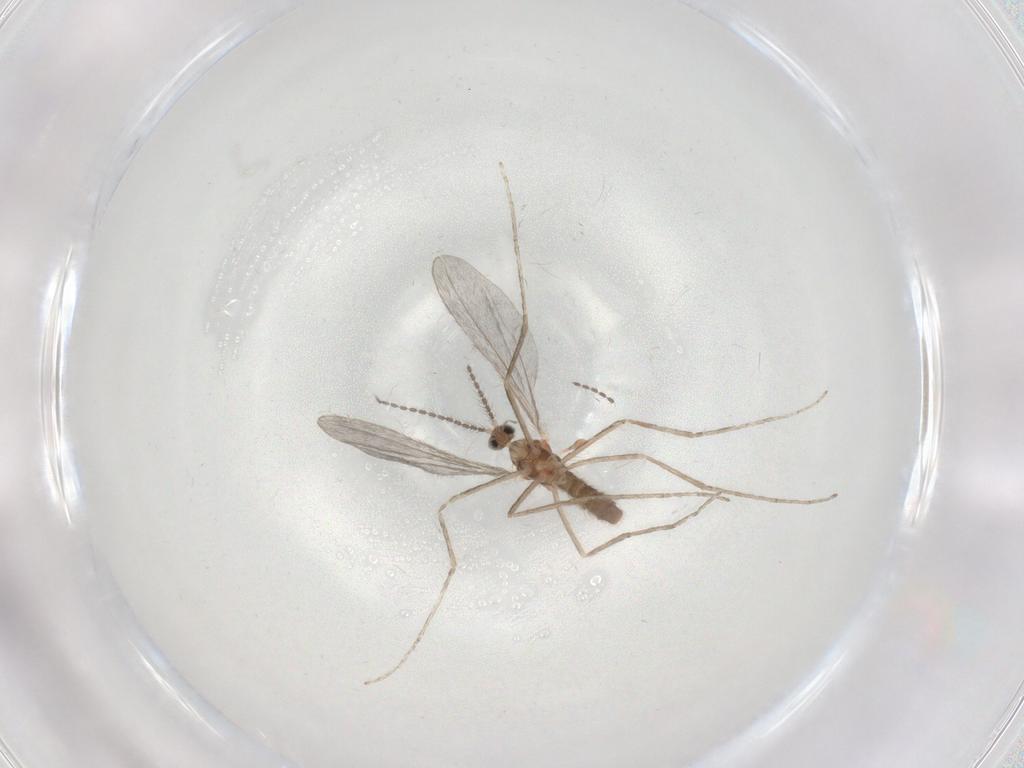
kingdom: Animalia
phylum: Arthropoda
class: Insecta
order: Diptera
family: Cecidomyiidae
